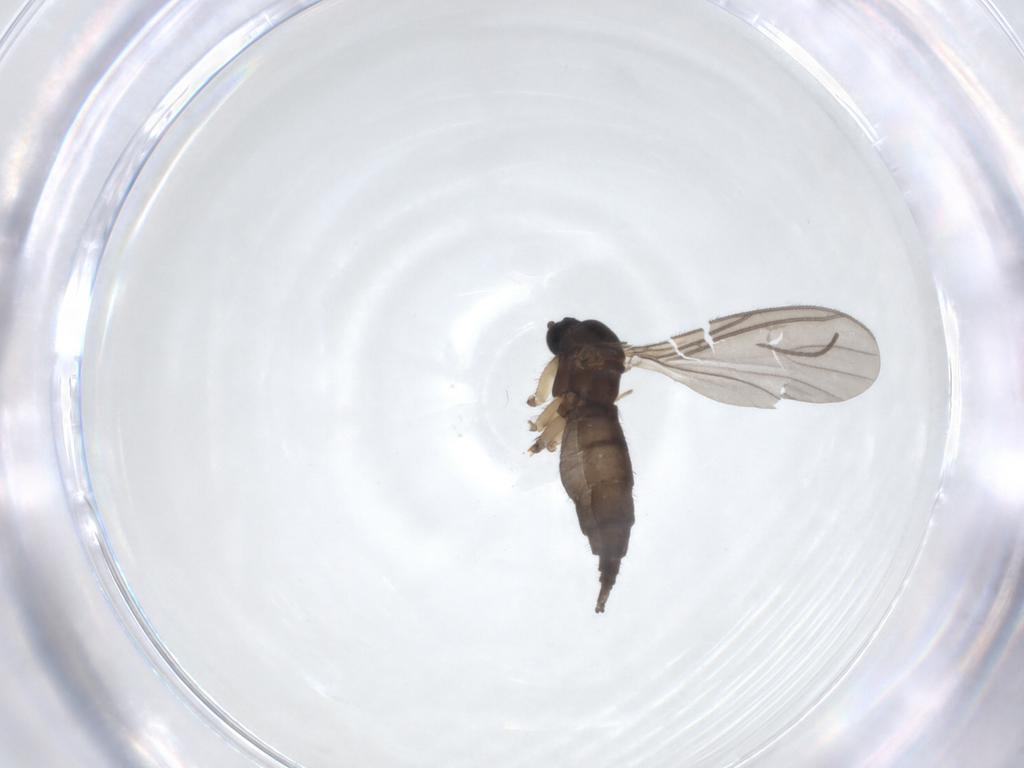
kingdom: Animalia
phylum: Arthropoda
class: Insecta
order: Diptera
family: Sciaridae
